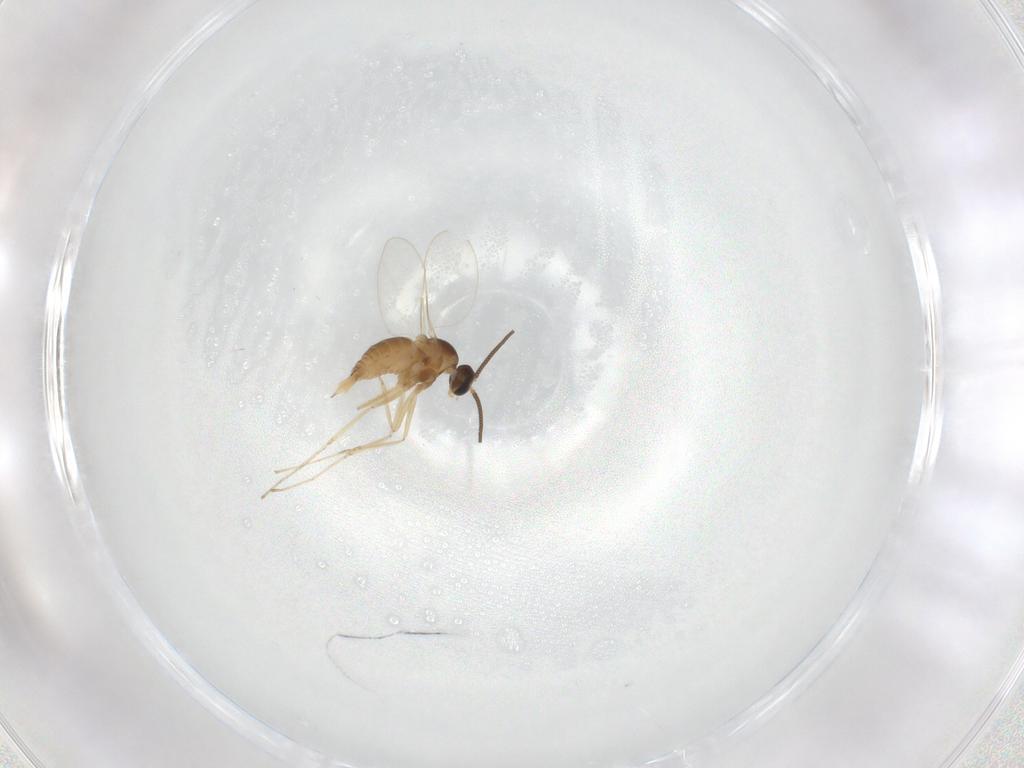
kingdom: Animalia
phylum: Arthropoda
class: Insecta
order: Diptera
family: Cecidomyiidae
